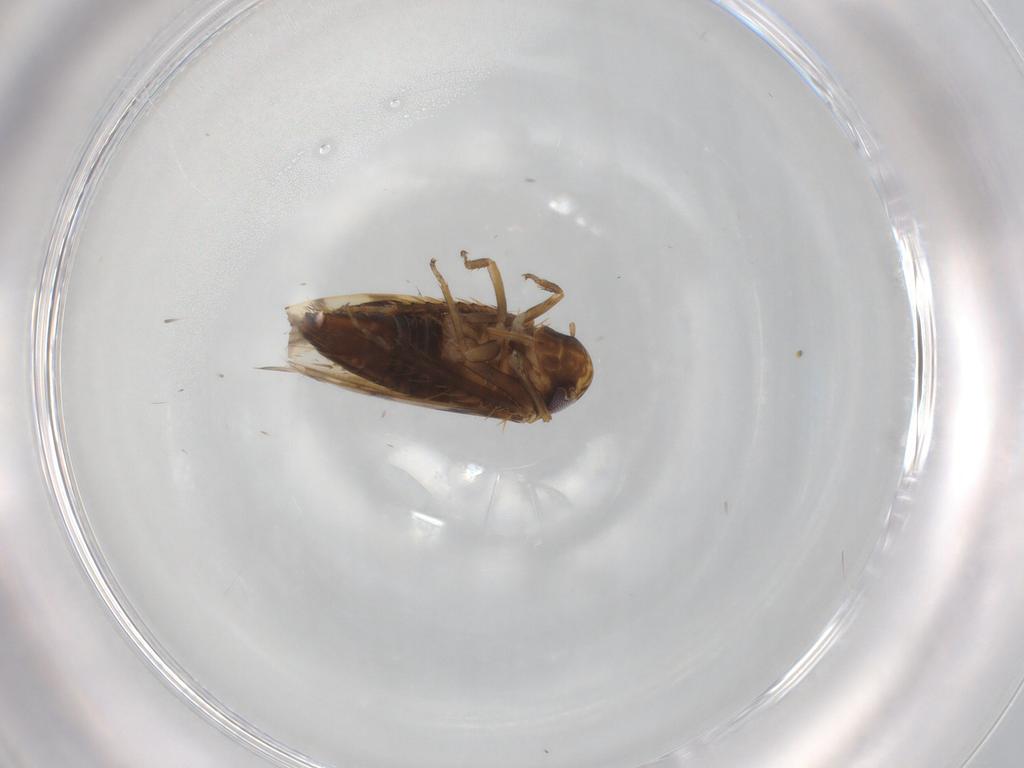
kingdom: Animalia
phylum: Arthropoda
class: Insecta
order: Hemiptera
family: Cicadellidae
